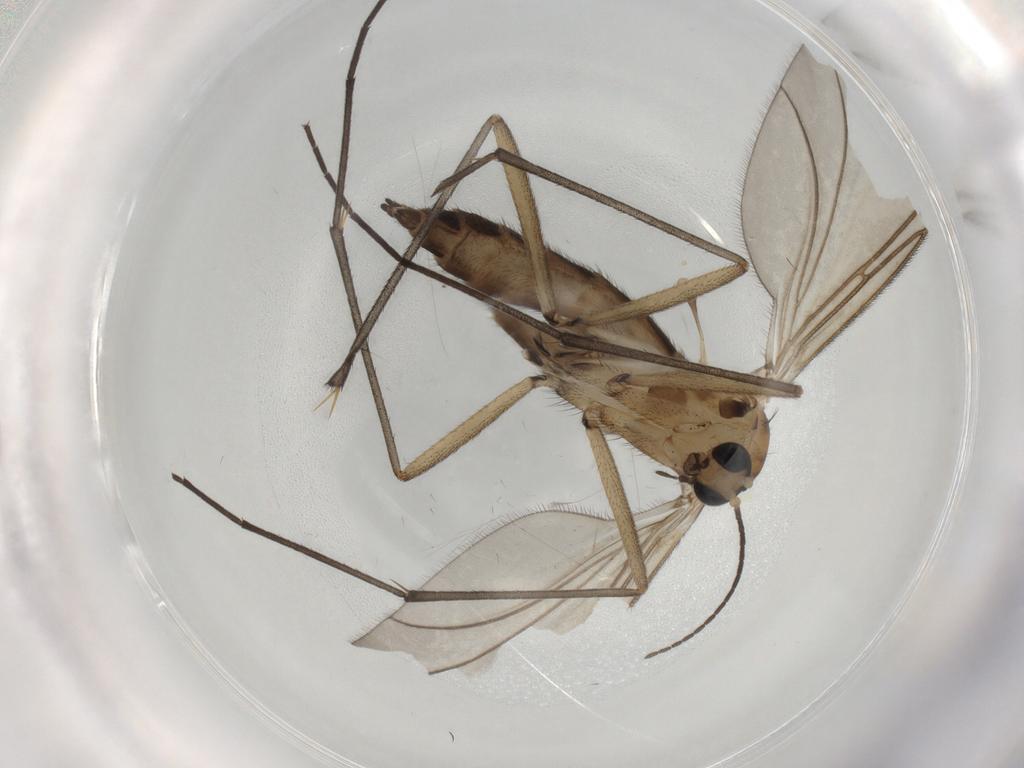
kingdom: Animalia
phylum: Arthropoda
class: Insecta
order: Diptera
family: Sciaridae
